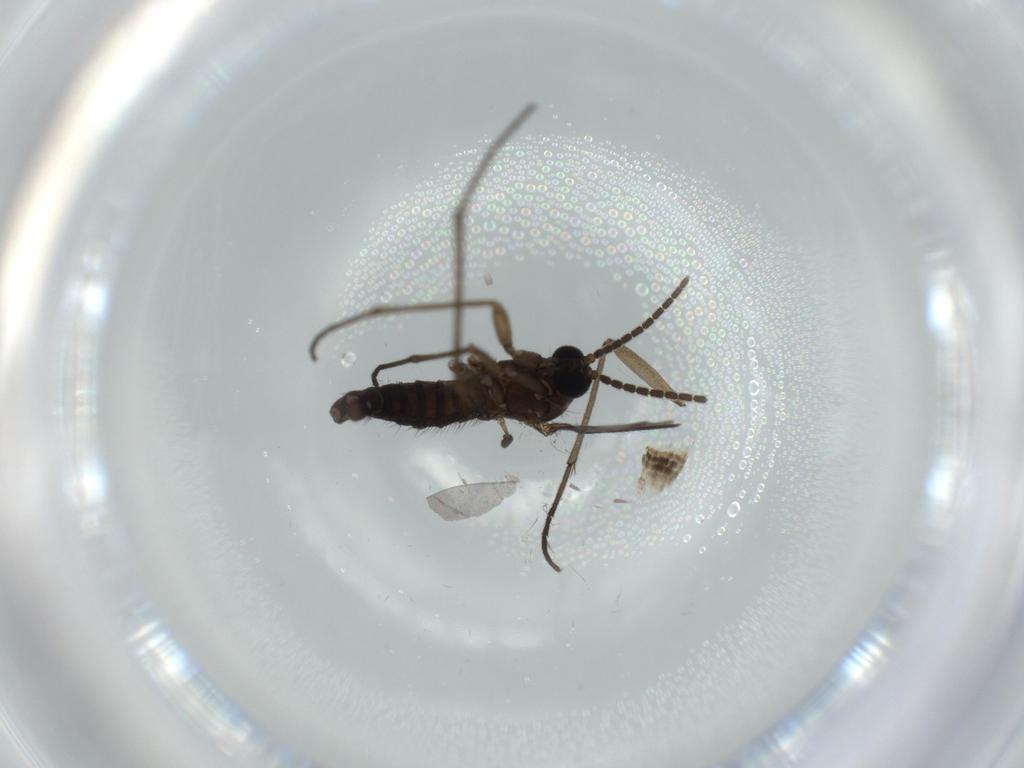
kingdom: Animalia
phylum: Arthropoda
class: Insecta
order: Diptera
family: Sciaridae
